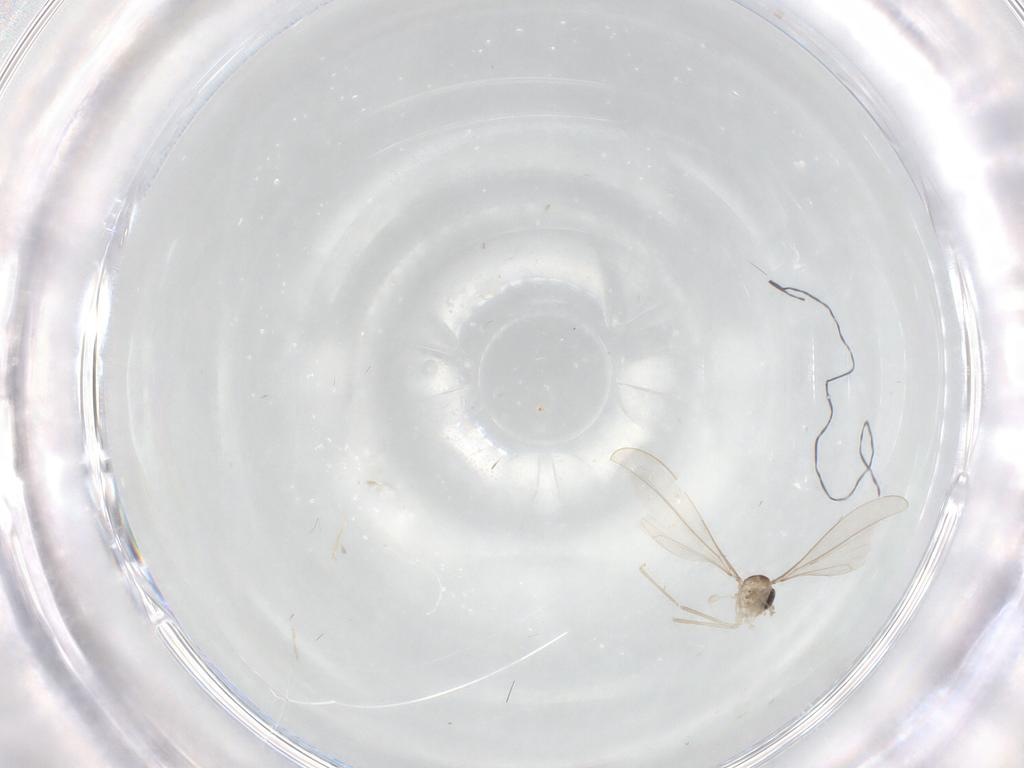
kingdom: Animalia
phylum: Arthropoda
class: Insecta
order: Diptera
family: Cecidomyiidae
